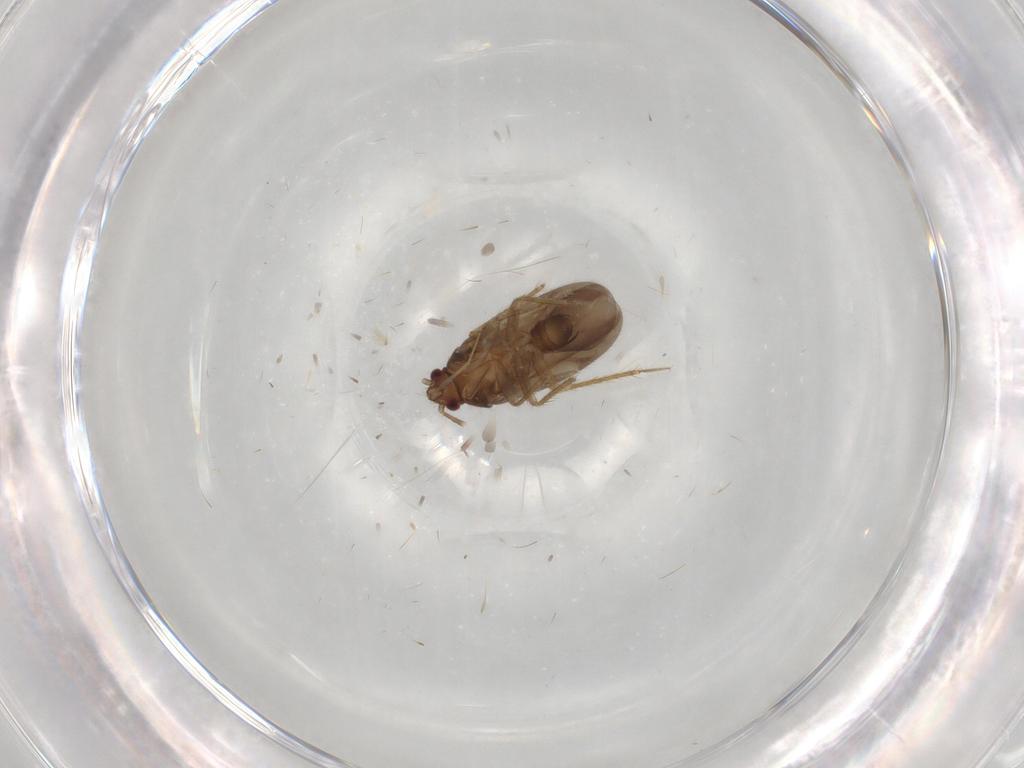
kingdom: Animalia
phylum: Arthropoda
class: Insecta
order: Hemiptera
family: Ceratocombidae
